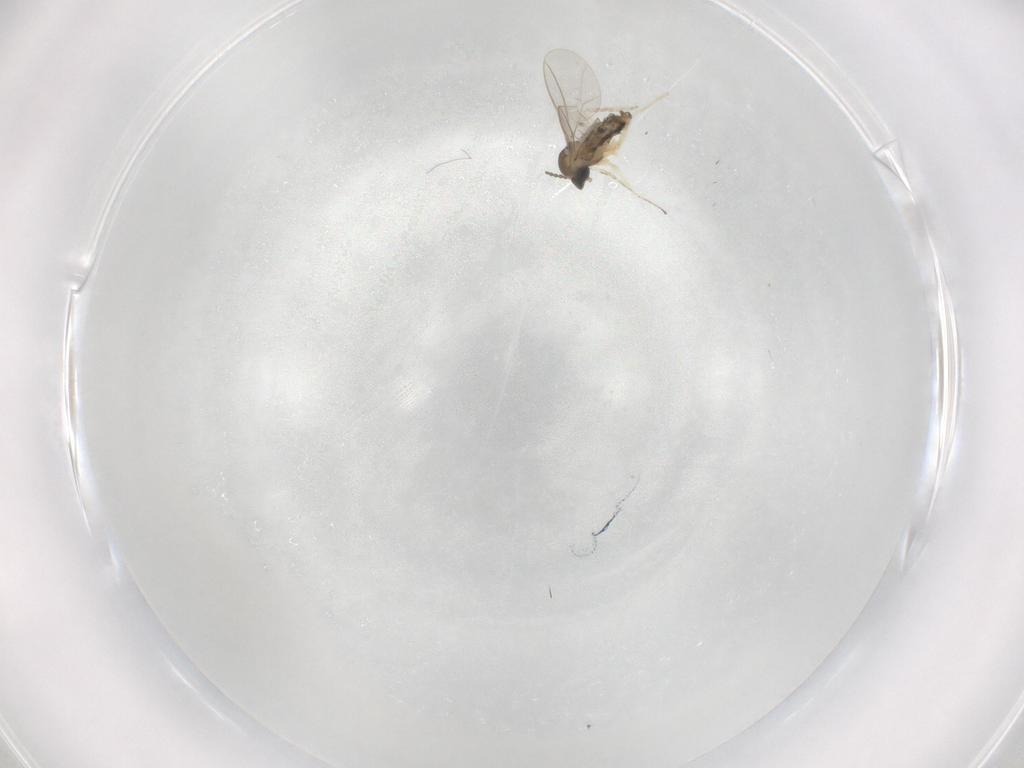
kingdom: Animalia
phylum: Arthropoda
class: Insecta
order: Diptera
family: Cecidomyiidae
